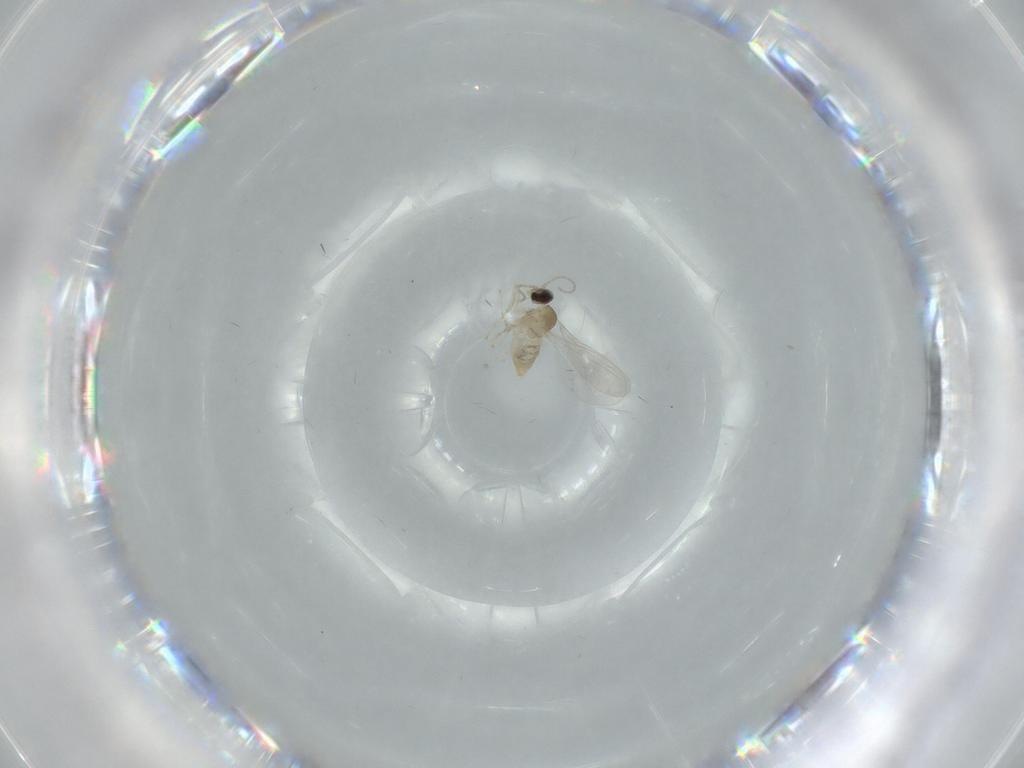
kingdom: Animalia
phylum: Arthropoda
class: Insecta
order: Diptera
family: Cecidomyiidae
